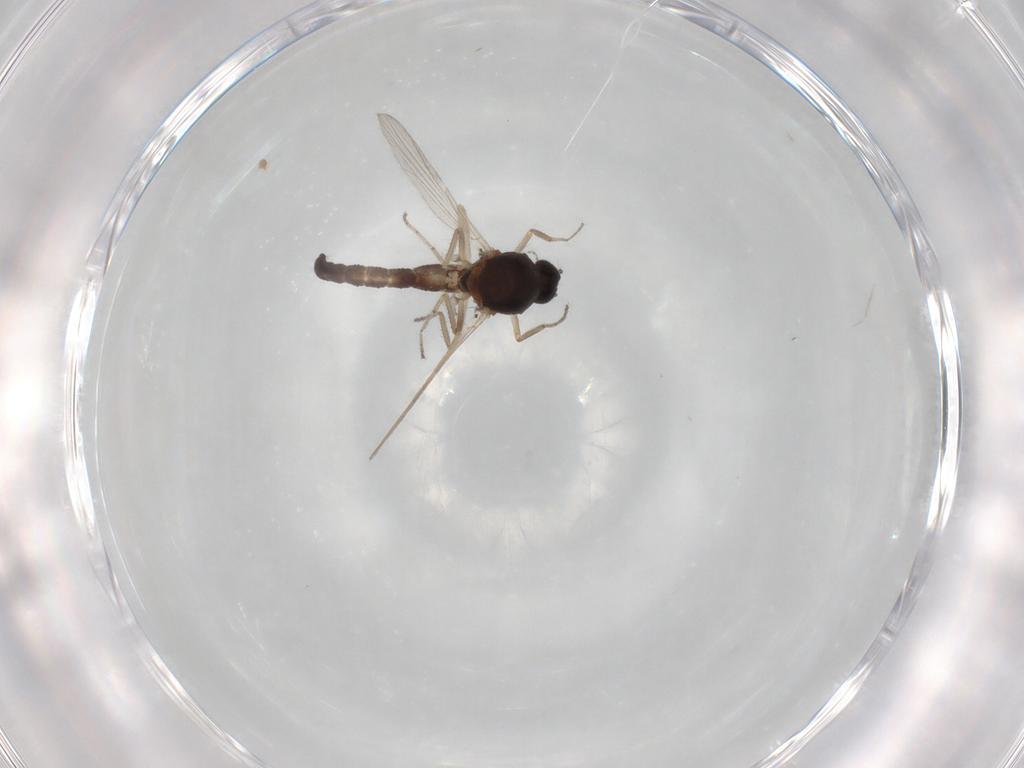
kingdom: Animalia
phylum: Arthropoda
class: Insecta
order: Diptera
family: Ceratopogonidae
